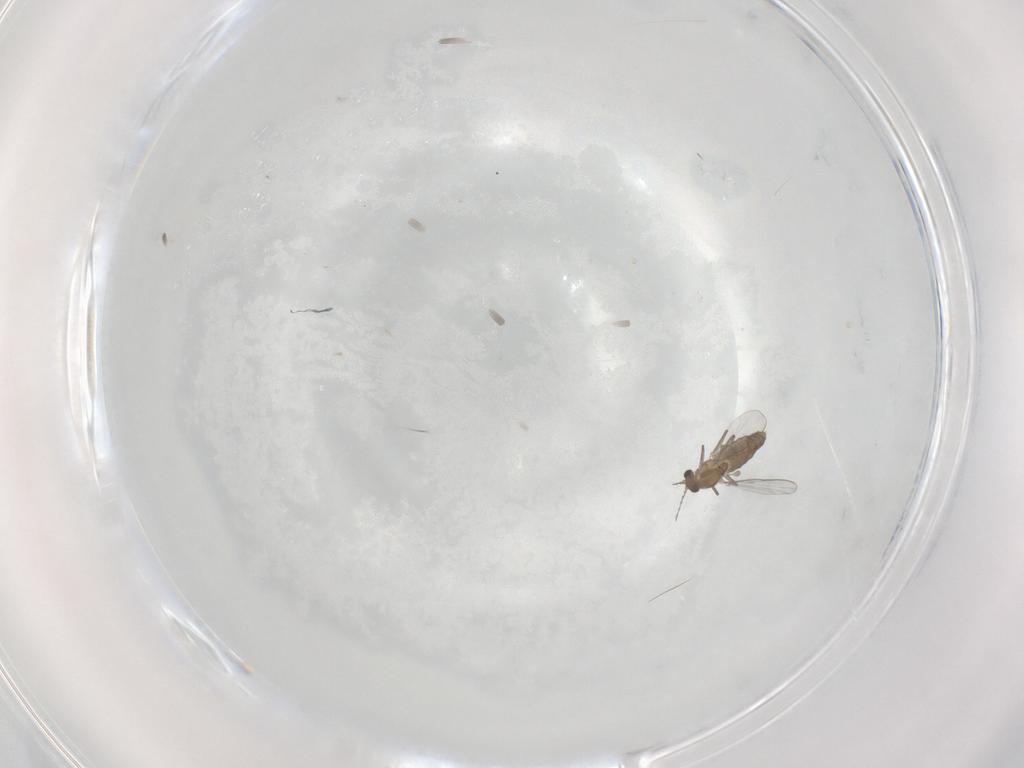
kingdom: Animalia
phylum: Arthropoda
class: Insecta
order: Diptera
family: Chironomidae
